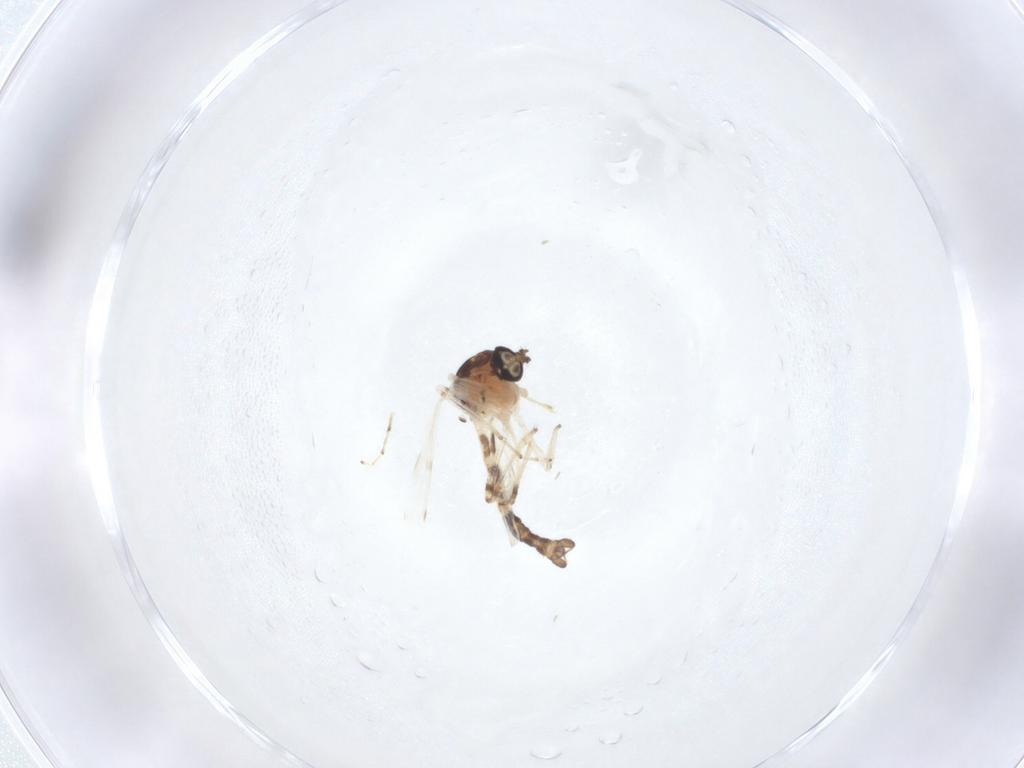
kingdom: Animalia
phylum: Arthropoda
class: Insecta
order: Diptera
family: Ceratopogonidae
